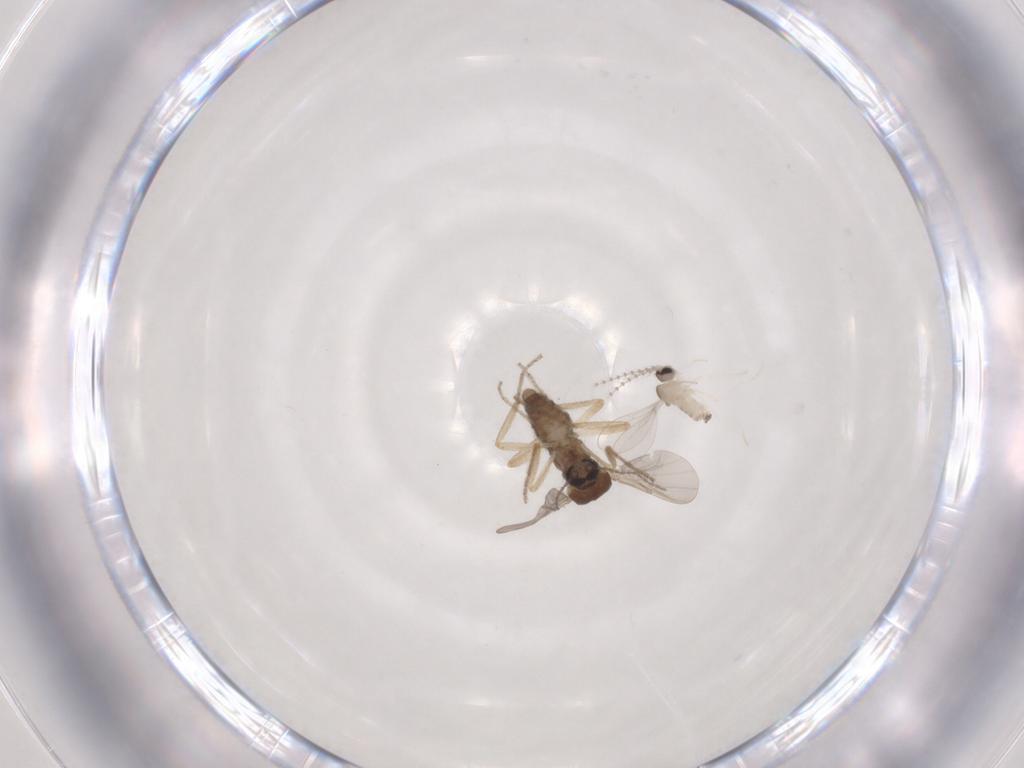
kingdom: Animalia
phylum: Arthropoda
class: Insecta
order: Diptera
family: Ceratopogonidae
